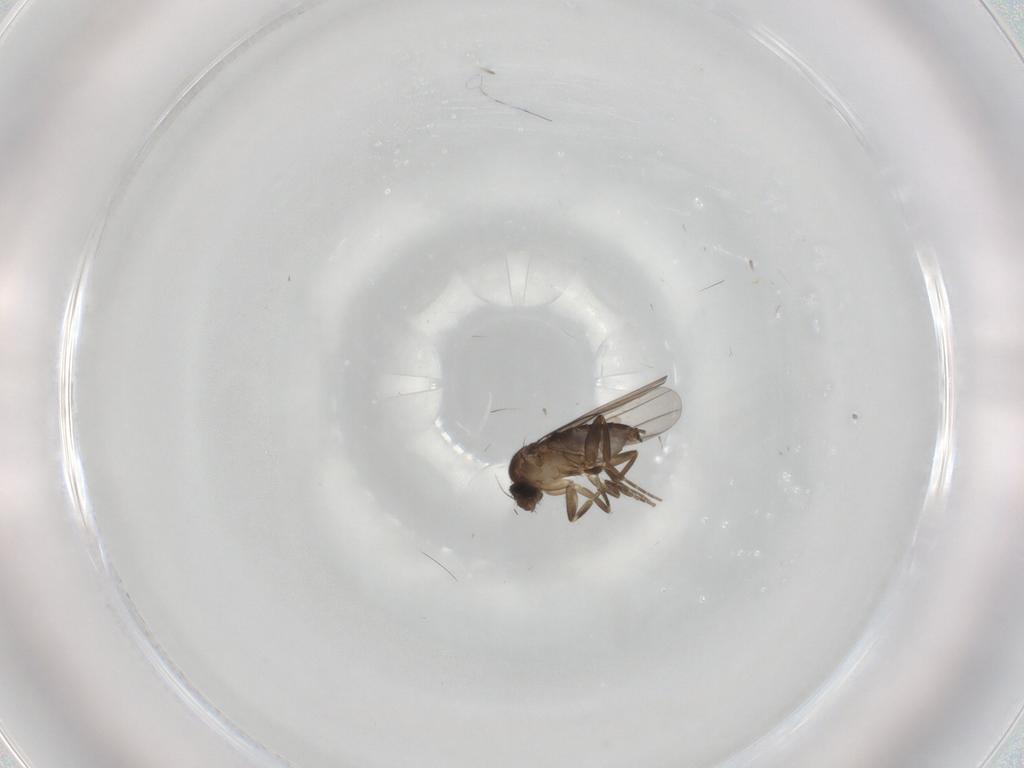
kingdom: Animalia
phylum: Arthropoda
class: Insecta
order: Diptera
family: Phoridae
